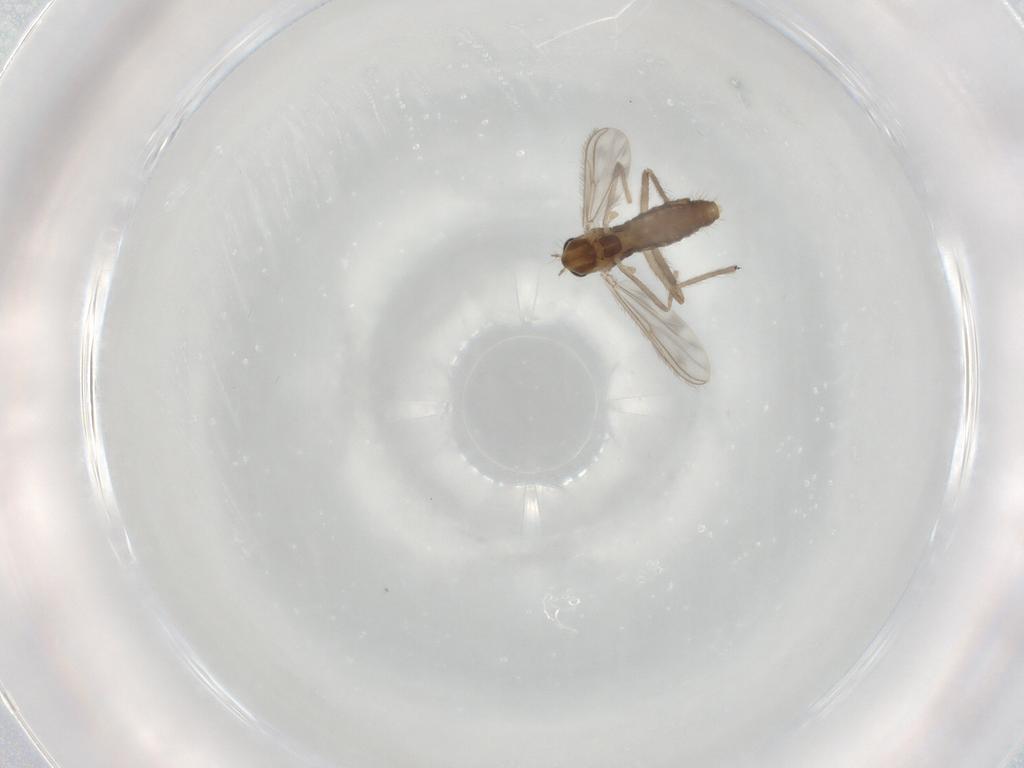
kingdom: Animalia
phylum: Arthropoda
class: Insecta
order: Diptera
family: Chironomidae
